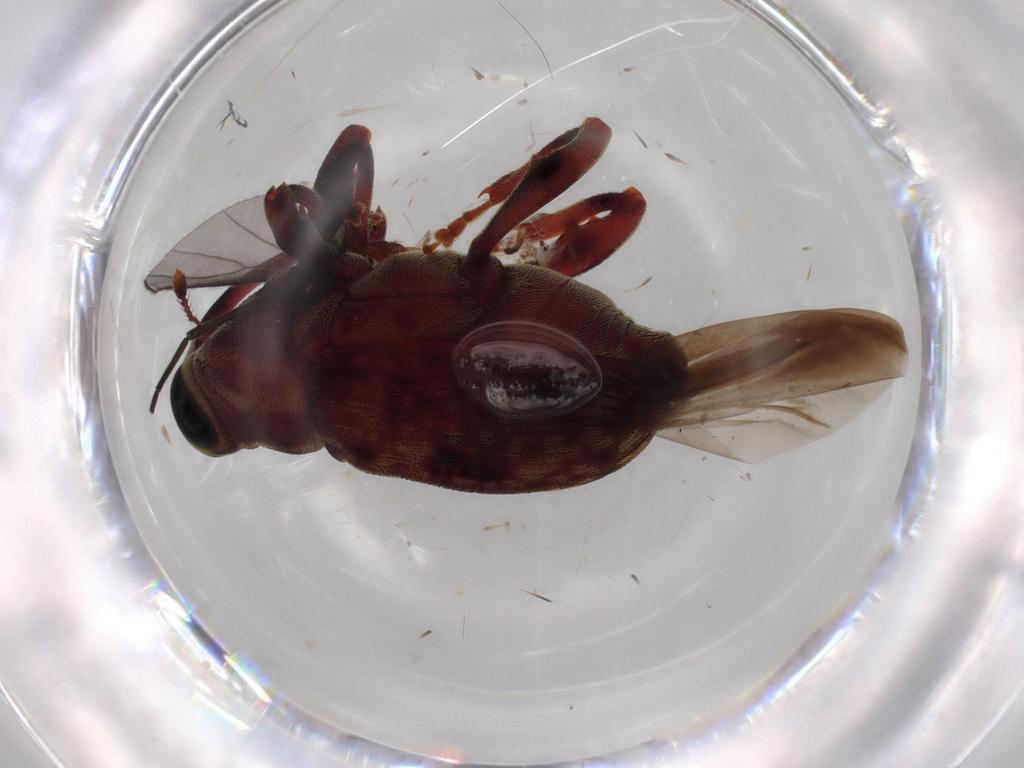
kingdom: Animalia
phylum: Arthropoda
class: Insecta
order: Coleoptera
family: Curculionidae
